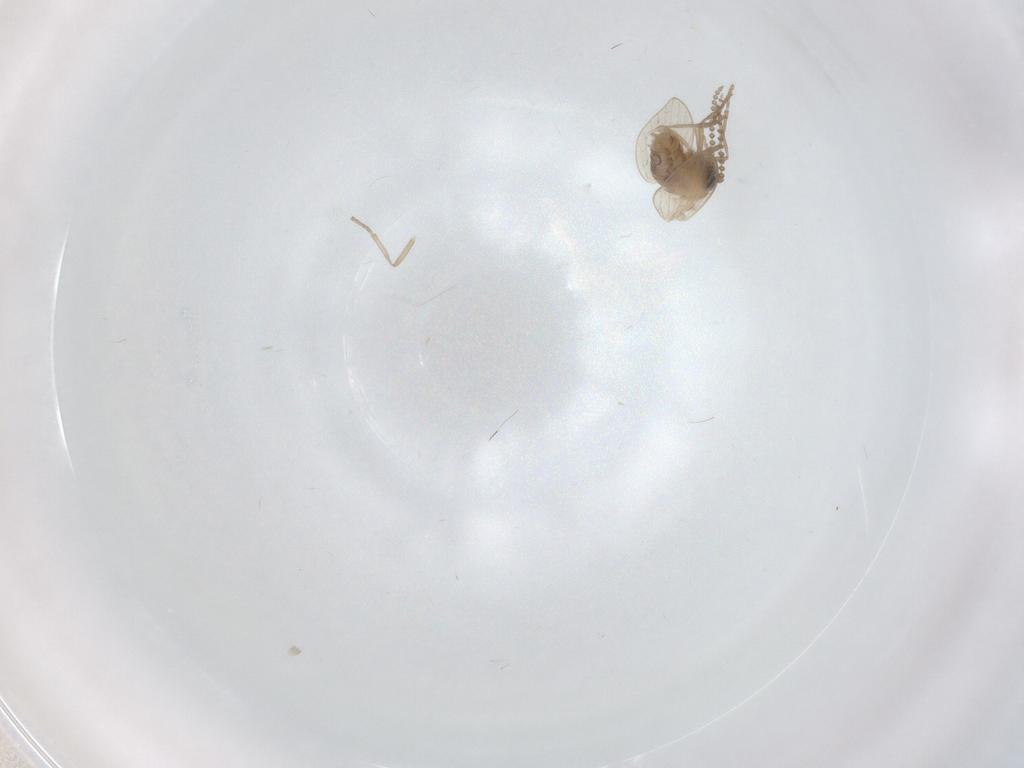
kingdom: Animalia
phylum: Arthropoda
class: Insecta
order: Diptera
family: Psychodidae
